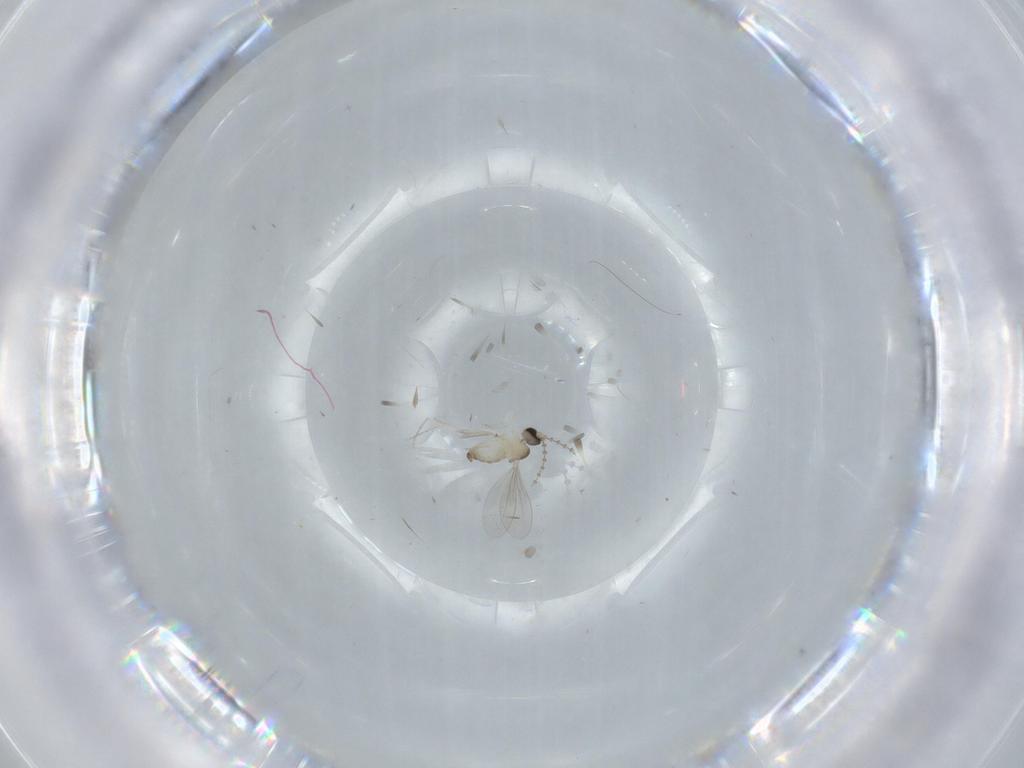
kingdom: Animalia
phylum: Arthropoda
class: Insecta
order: Diptera
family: Cecidomyiidae
